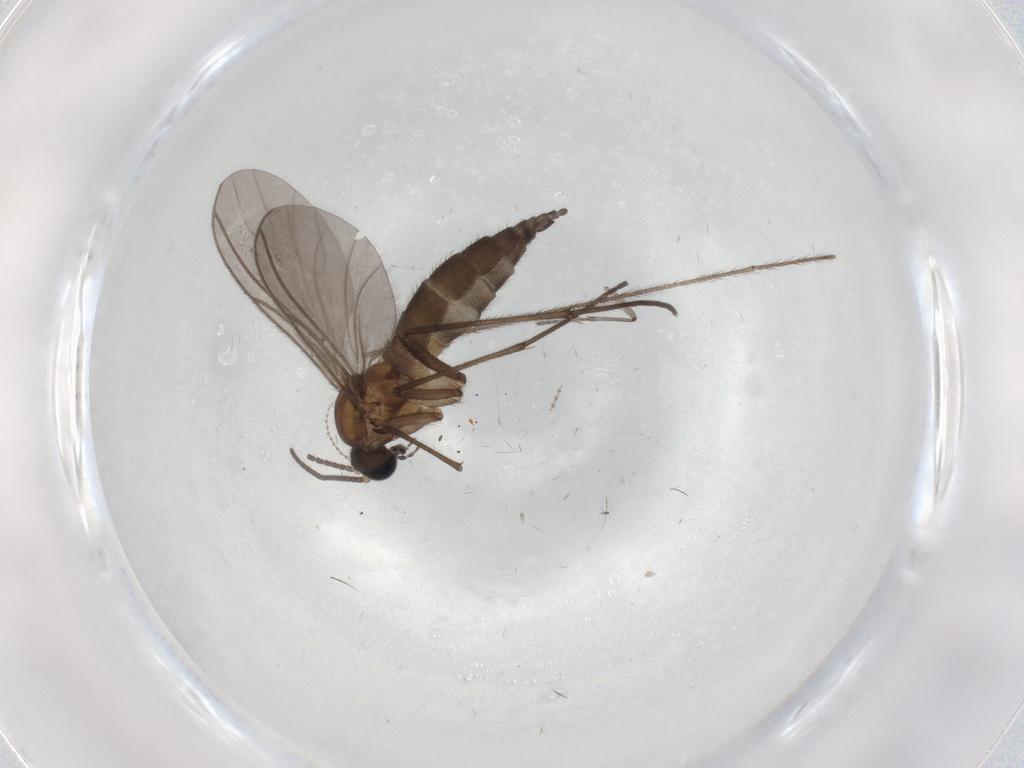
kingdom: Animalia
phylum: Arthropoda
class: Insecta
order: Diptera
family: Sciaridae
